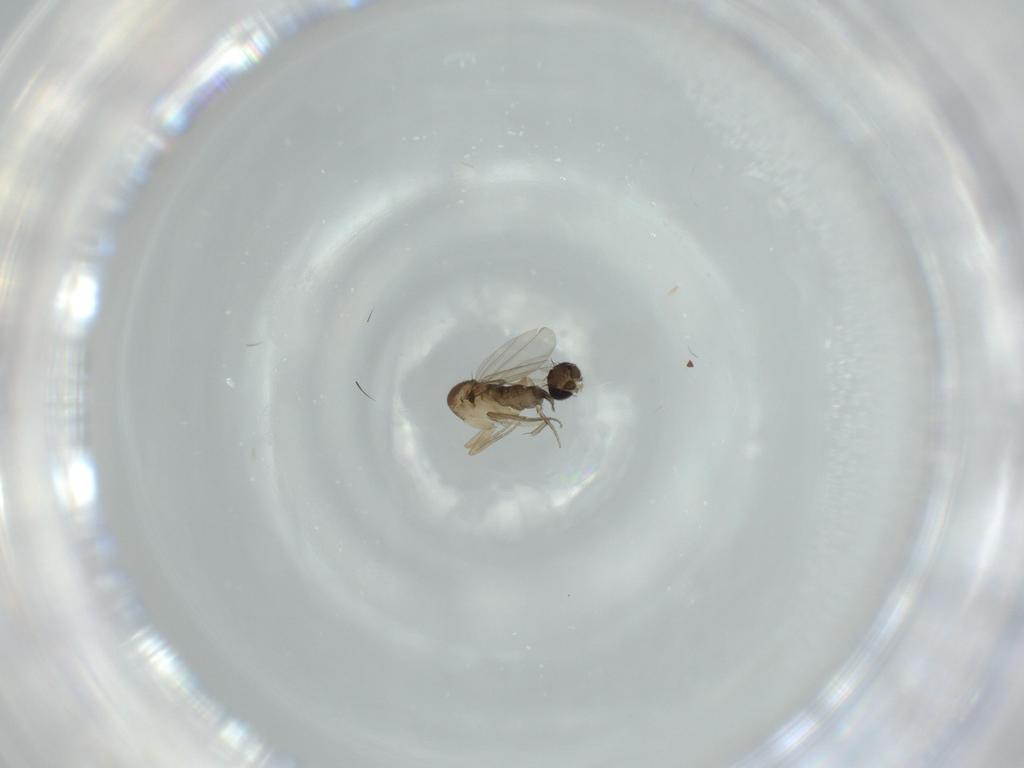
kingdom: Animalia
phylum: Arthropoda
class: Insecta
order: Diptera
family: Phoridae
